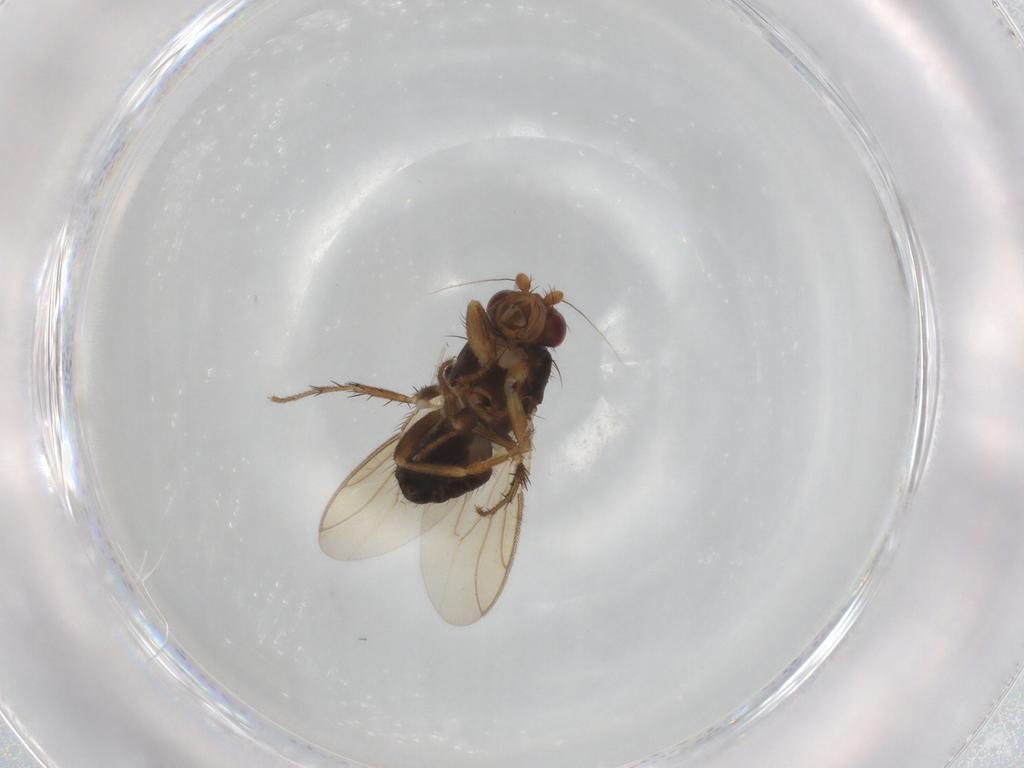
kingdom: Animalia
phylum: Arthropoda
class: Insecta
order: Diptera
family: Sphaeroceridae
